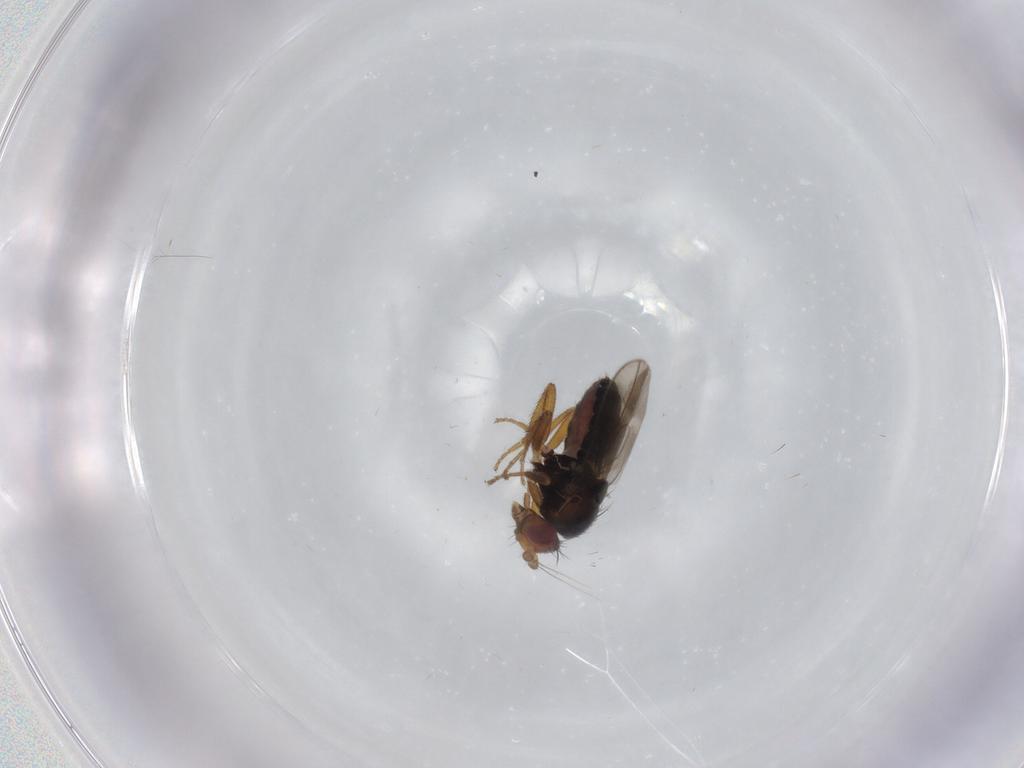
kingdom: Animalia
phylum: Arthropoda
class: Insecta
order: Diptera
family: Sphaeroceridae
